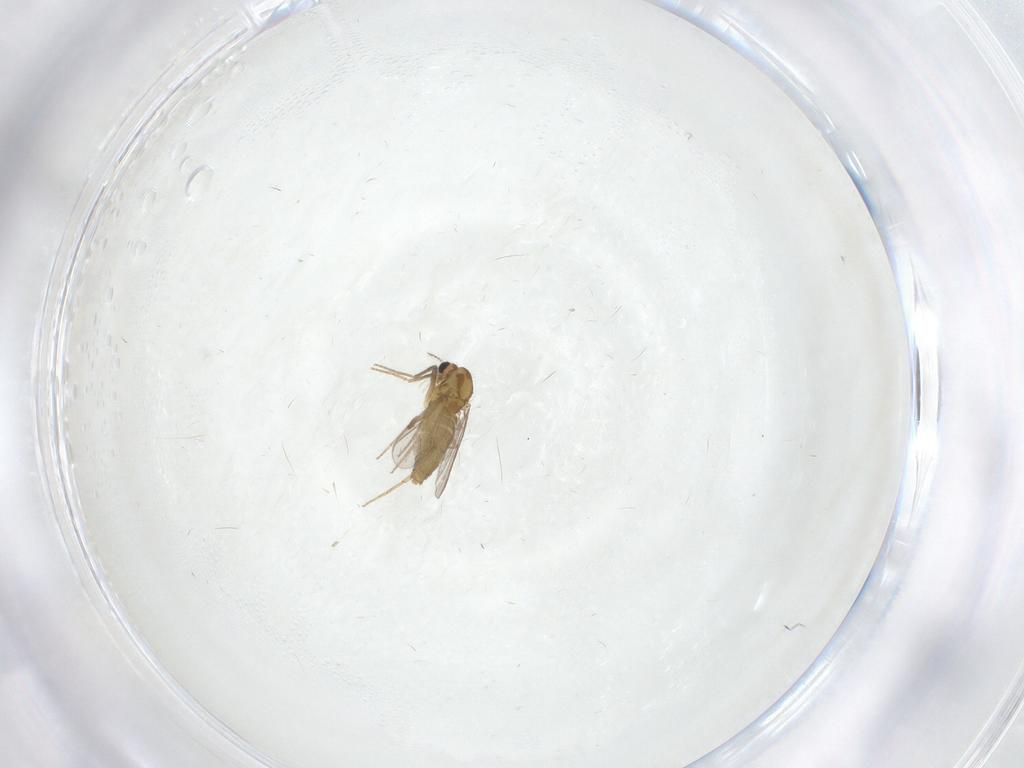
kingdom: Animalia
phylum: Arthropoda
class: Insecta
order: Diptera
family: Chironomidae
